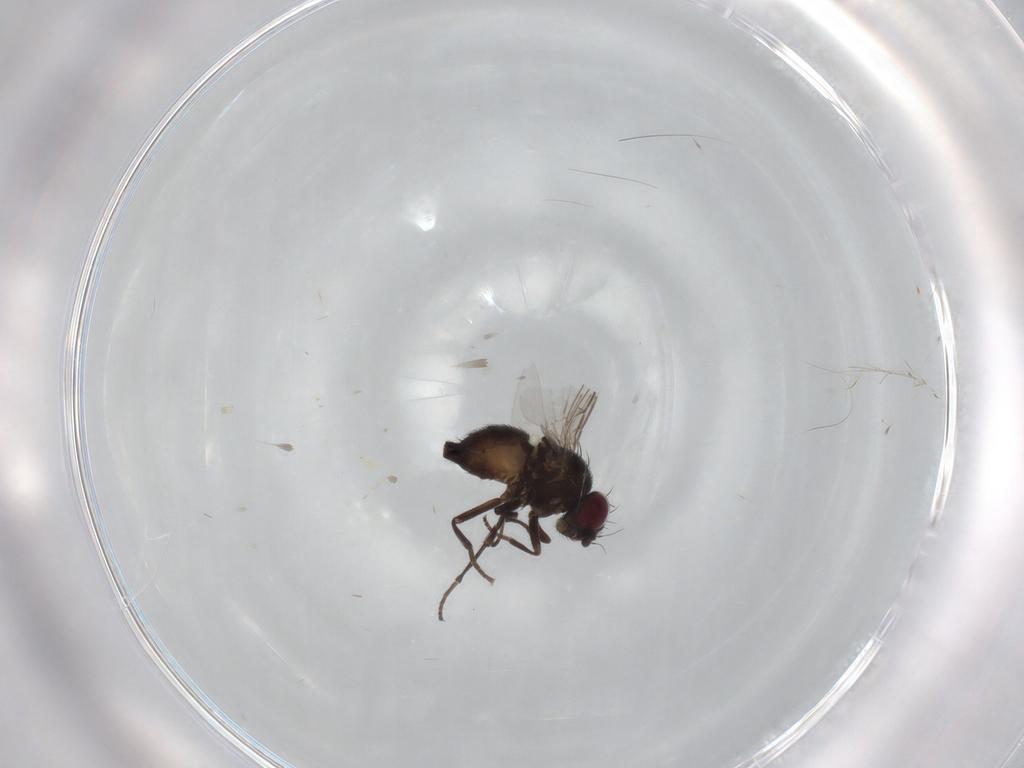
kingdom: Animalia
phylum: Arthropoda
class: Insecta
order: Diptera
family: Agromyzidae
